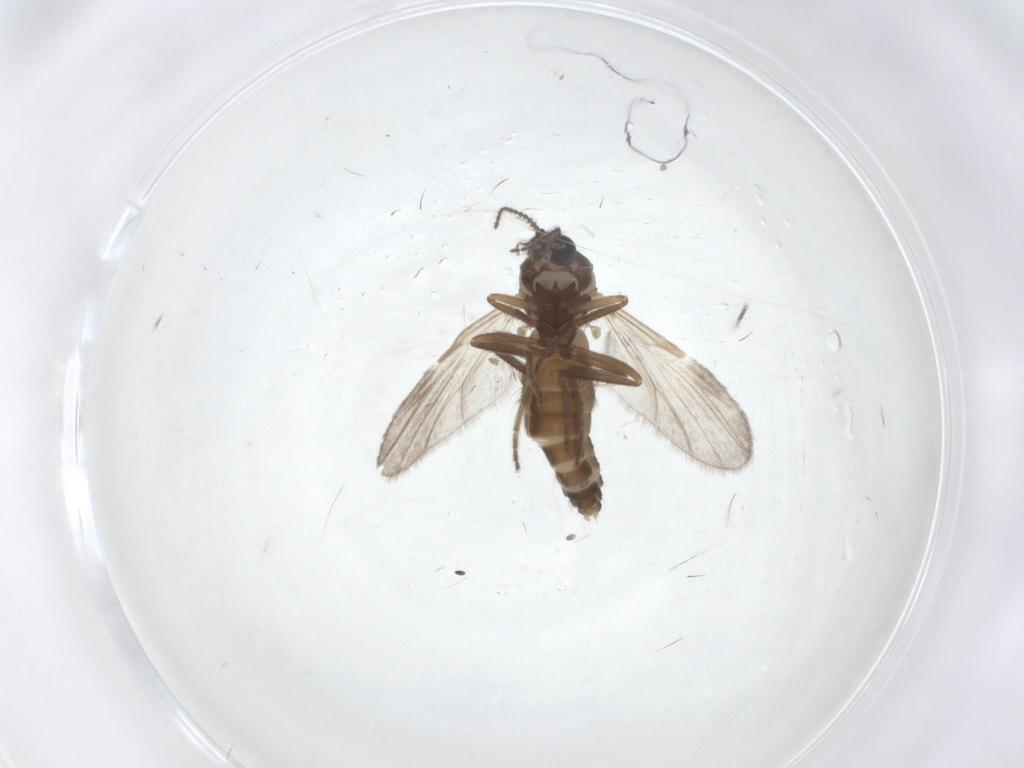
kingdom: Animalia
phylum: Arthropoda
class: Insecta
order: Diptera
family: Ceratopogonidae
